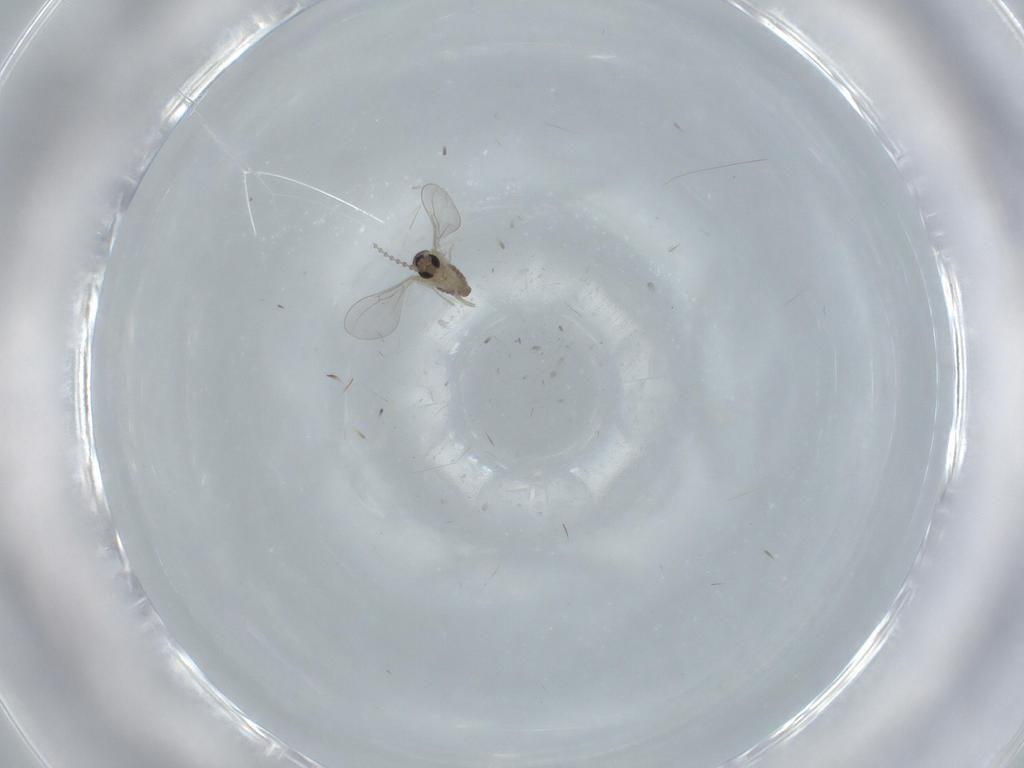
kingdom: Animalia
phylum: Arthropoda
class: Insecta
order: Diptera
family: Sciaridae
